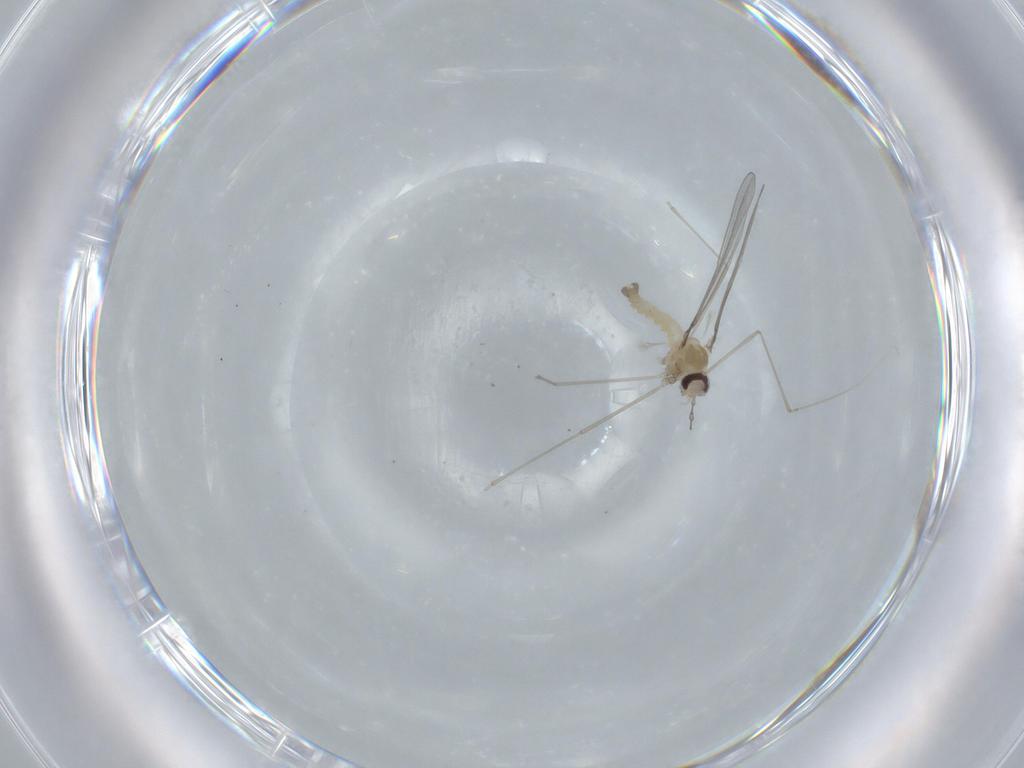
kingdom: Animalia
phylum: Arthropoda
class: Insecta
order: Diptera
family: Cecidomyiidae
